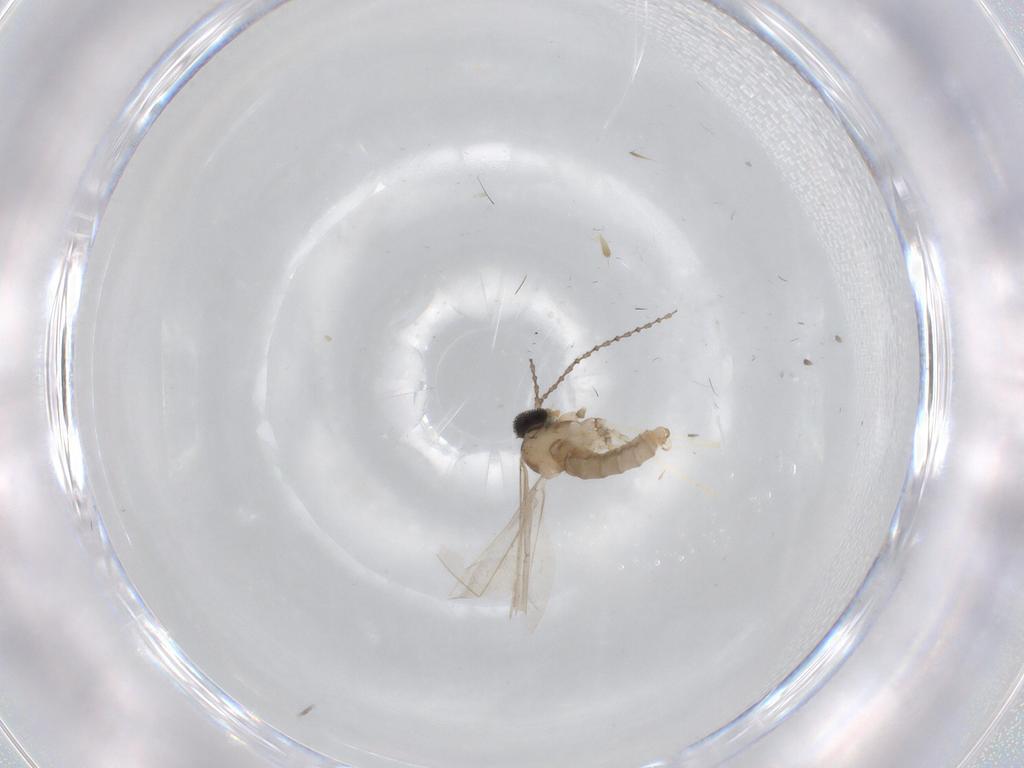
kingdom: Animalia
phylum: Arthropoda
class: Insecta
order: Diptera
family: Cecidomyiidae
